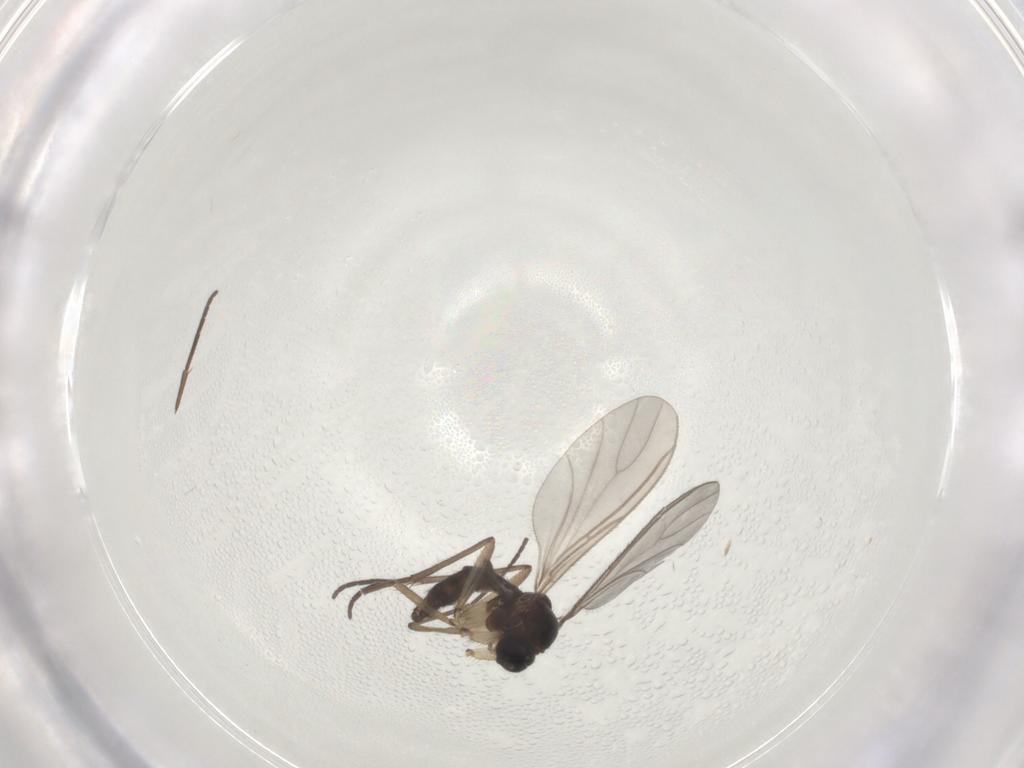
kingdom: Animalia
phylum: Arthropoda
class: Insecta
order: Diptera
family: Sciaridae
